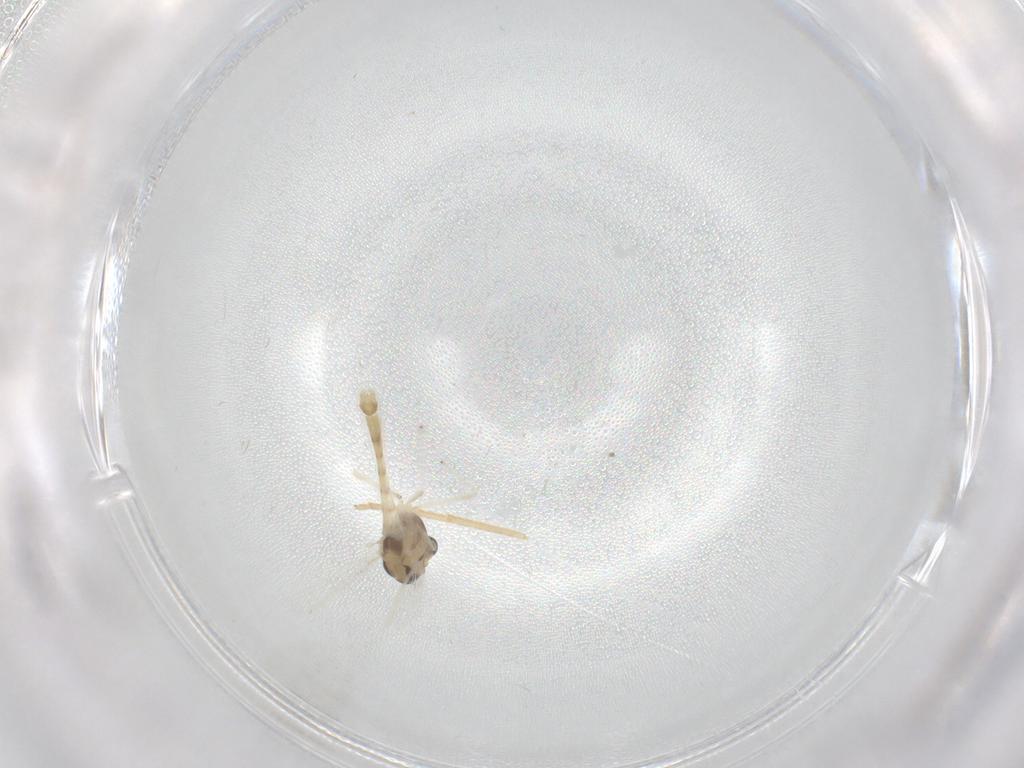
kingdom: Animalia
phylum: Arthropoda
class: Insecta
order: Diptera
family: Chironomidae
